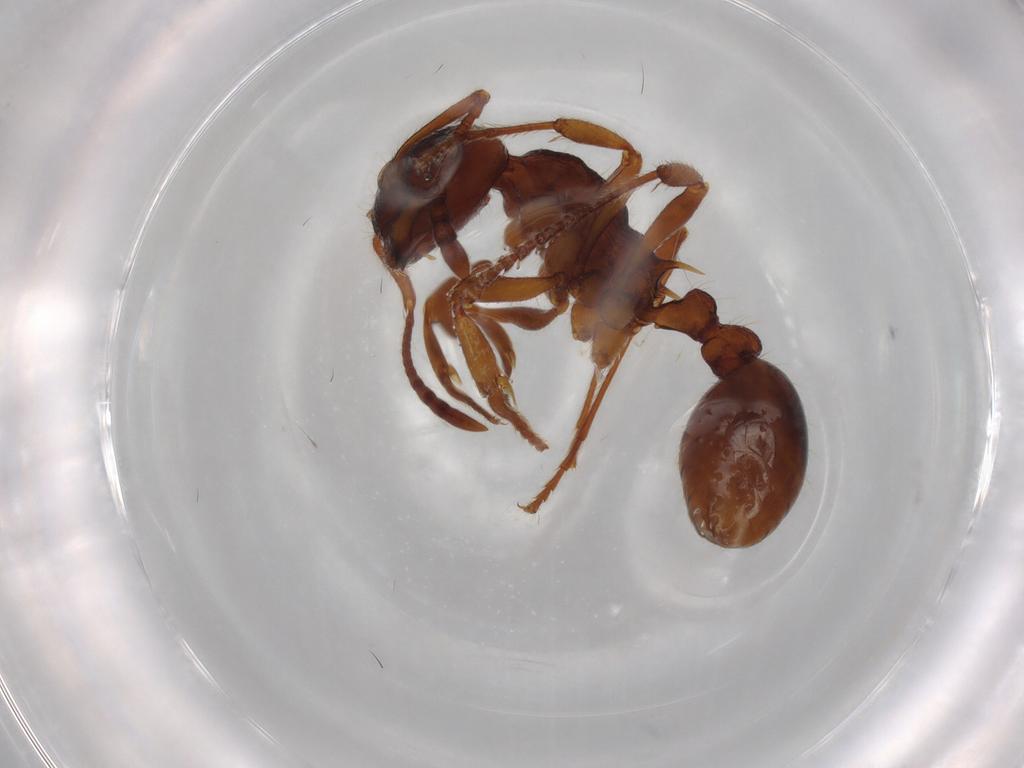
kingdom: Animalia
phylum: Arthropoda
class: Insecta
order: Hymenoptera
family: Formicidae
